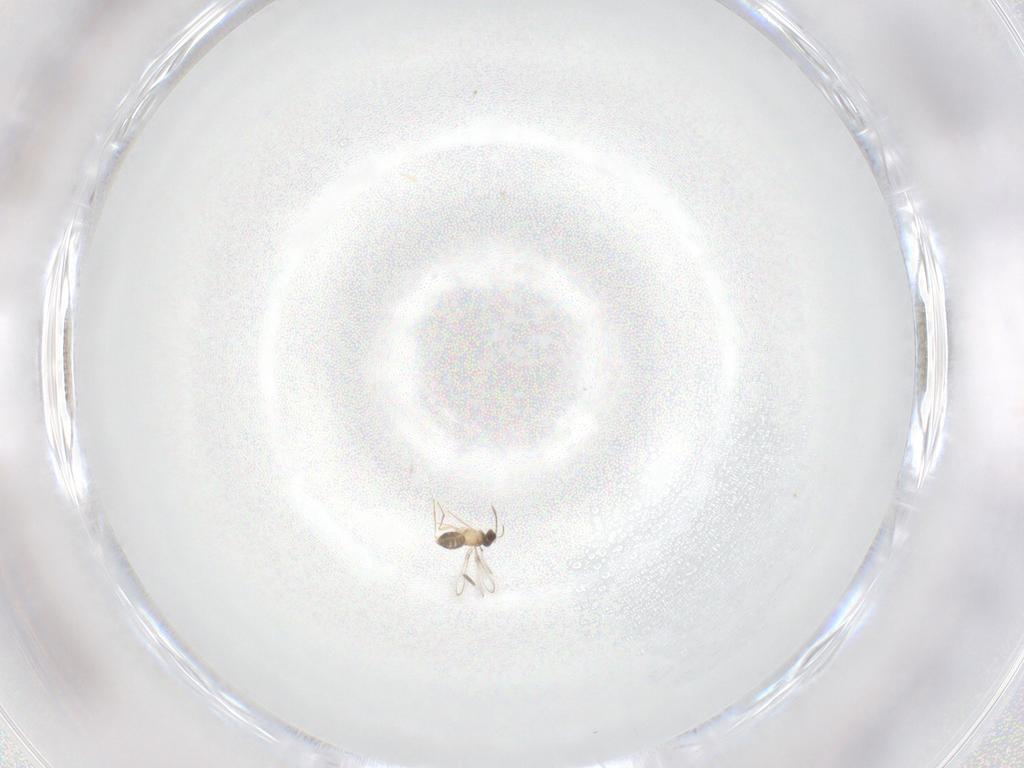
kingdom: Animalia
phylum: Arthropoda
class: Insecta
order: Hymenoptera
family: Mymaridae
